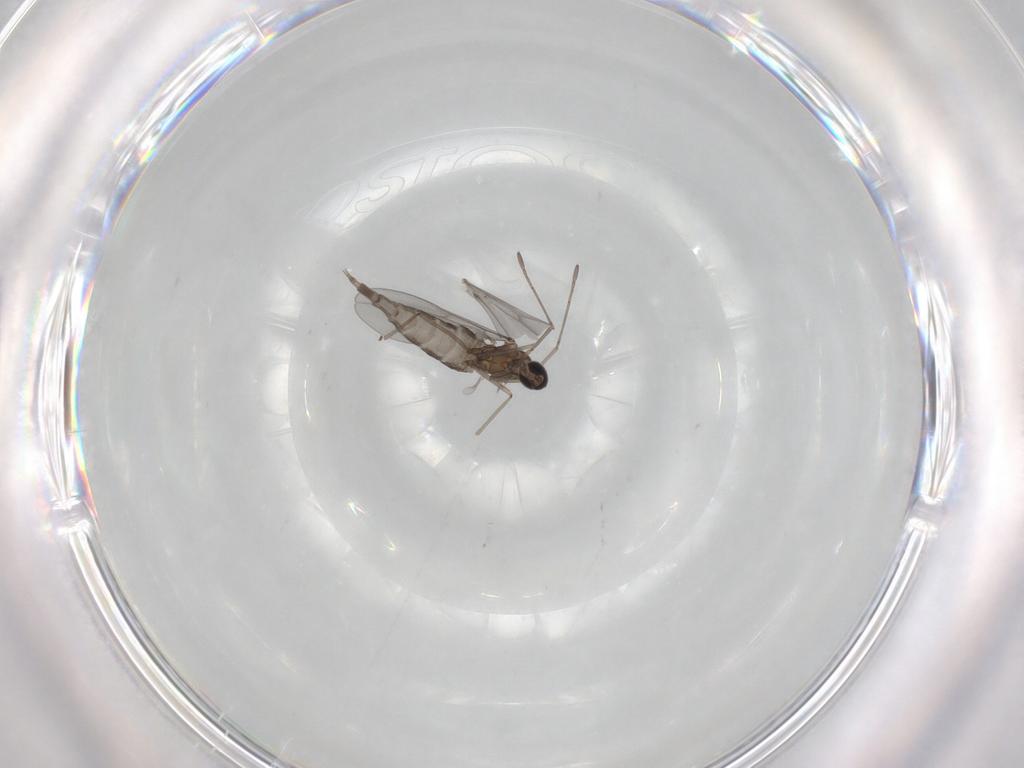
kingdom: Animalia
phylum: Arthropoda
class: Insecta
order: Diptera
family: Cecidomyiidae
